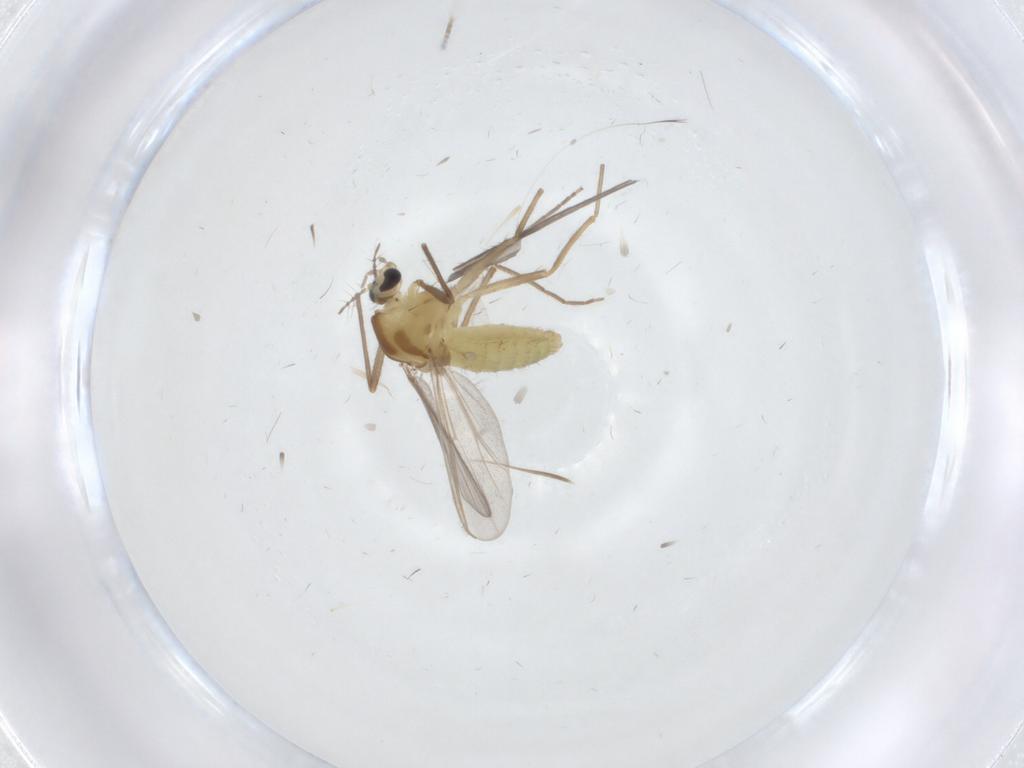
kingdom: Animalia
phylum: Arthropoda
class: Insecta
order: Diptera
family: Chironomidae
